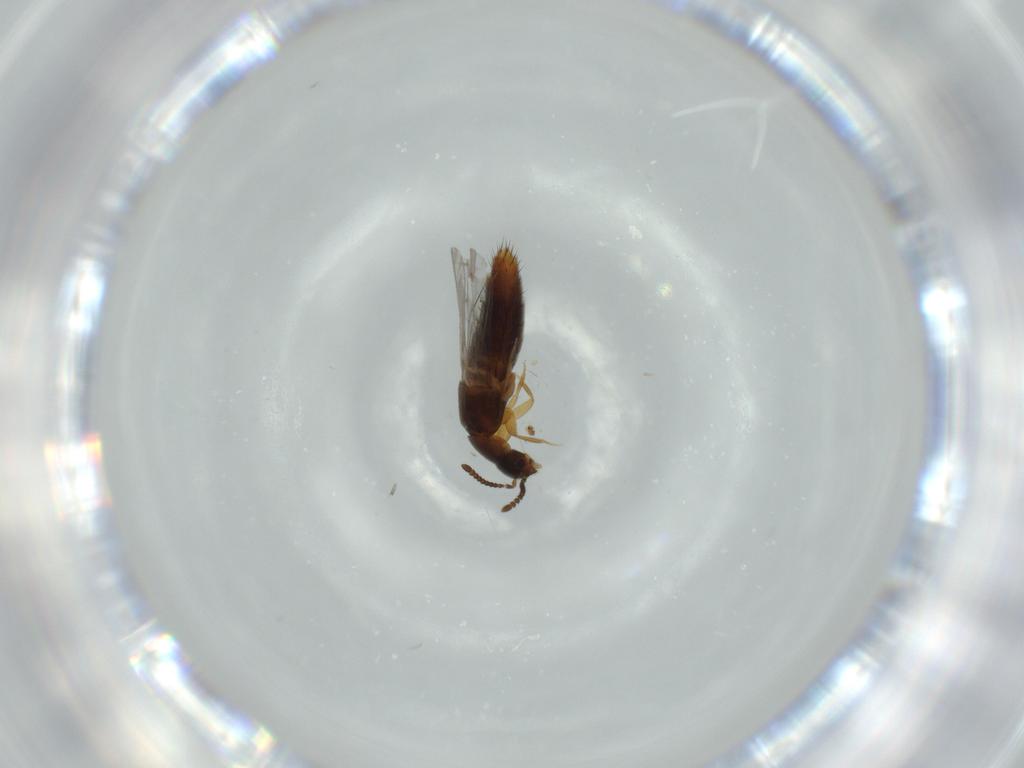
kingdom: Animalia
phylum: Arthropoda
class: Insecta
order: Coleoptera
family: Staphylinidae
